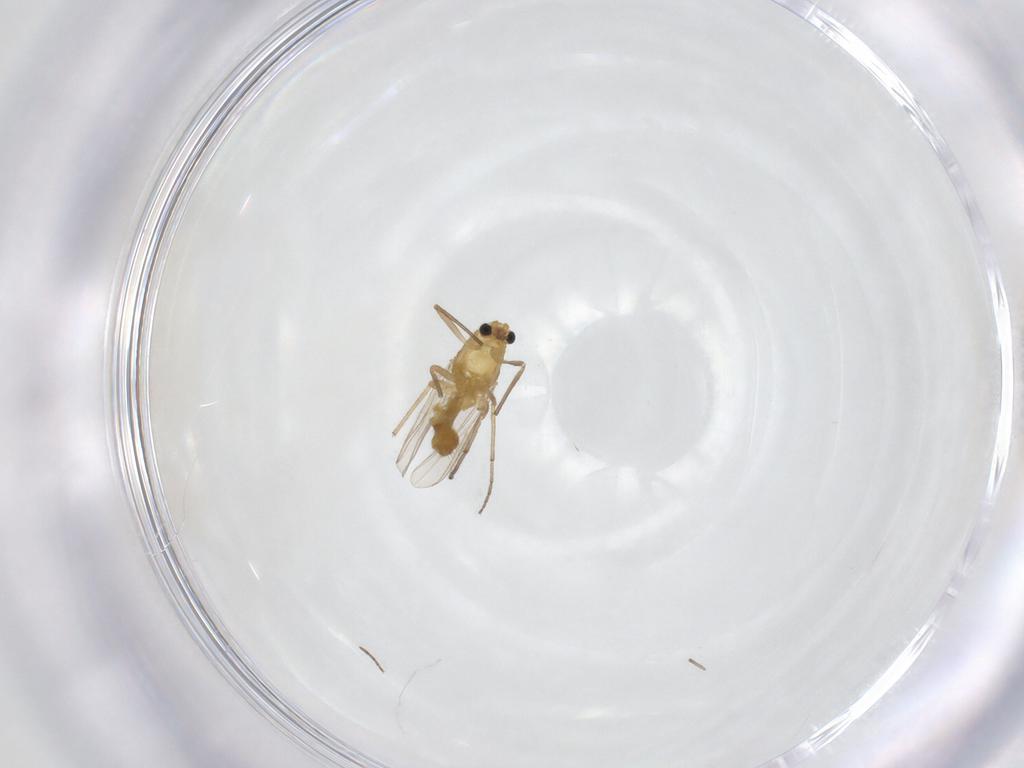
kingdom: Animalia
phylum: Arthropoda
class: Insecta
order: Diptera
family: Chironomidae
